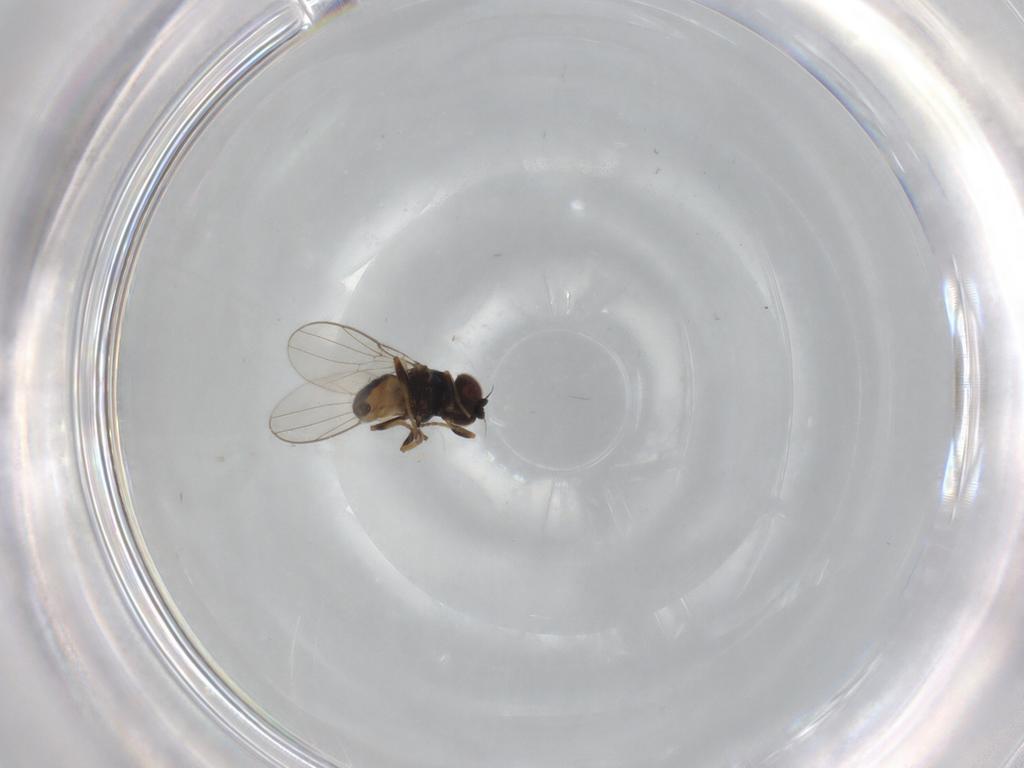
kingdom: Animalia
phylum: Arthropoda
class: Insecta
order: Diptera
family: Chloropidae
